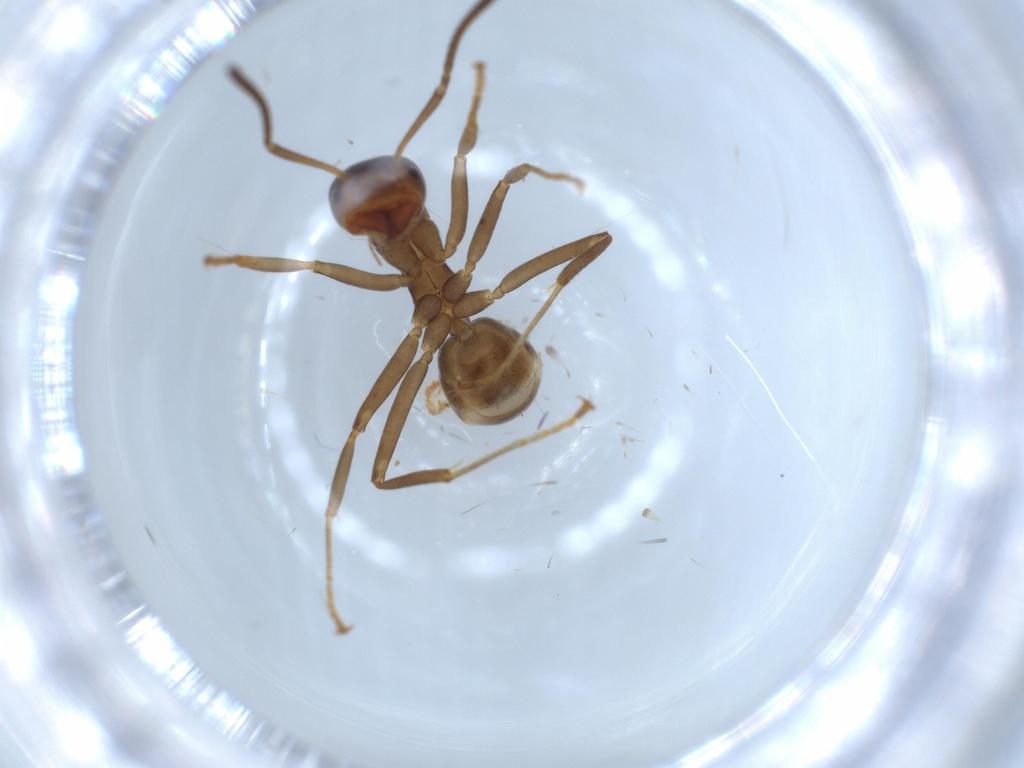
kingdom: Animalia
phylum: Arthropoda
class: Insecta
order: Hymenoptera
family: Formicidae
